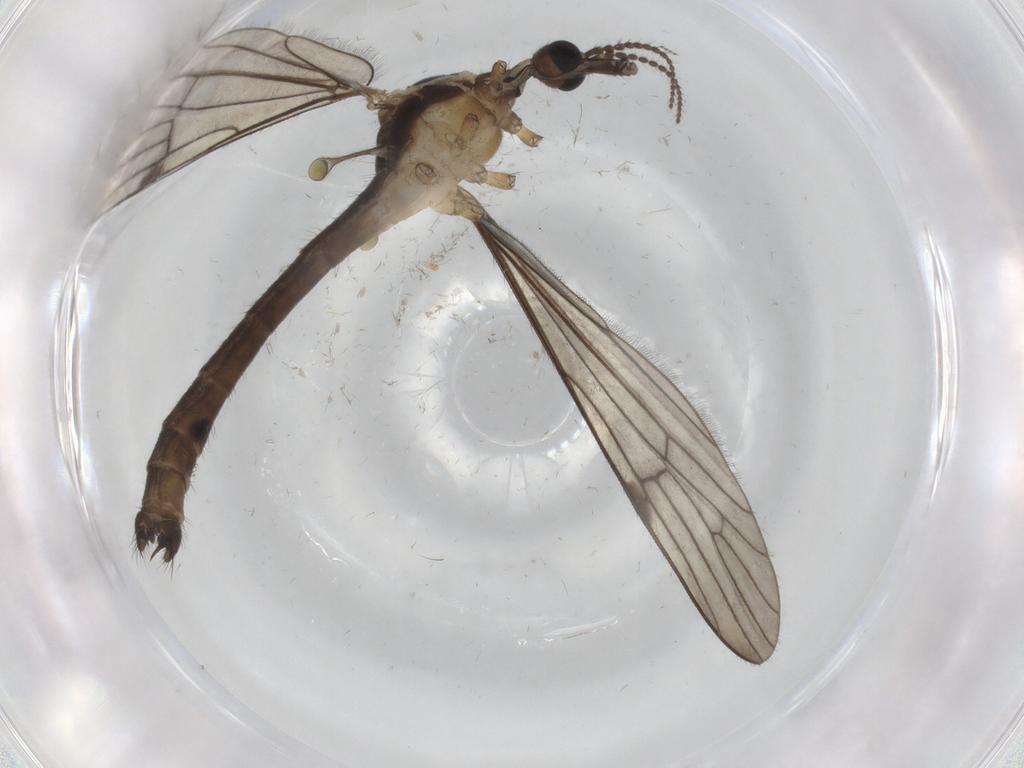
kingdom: Animalia
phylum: Arthropoda
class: Insecta
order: Diptera
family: Limoniidae
